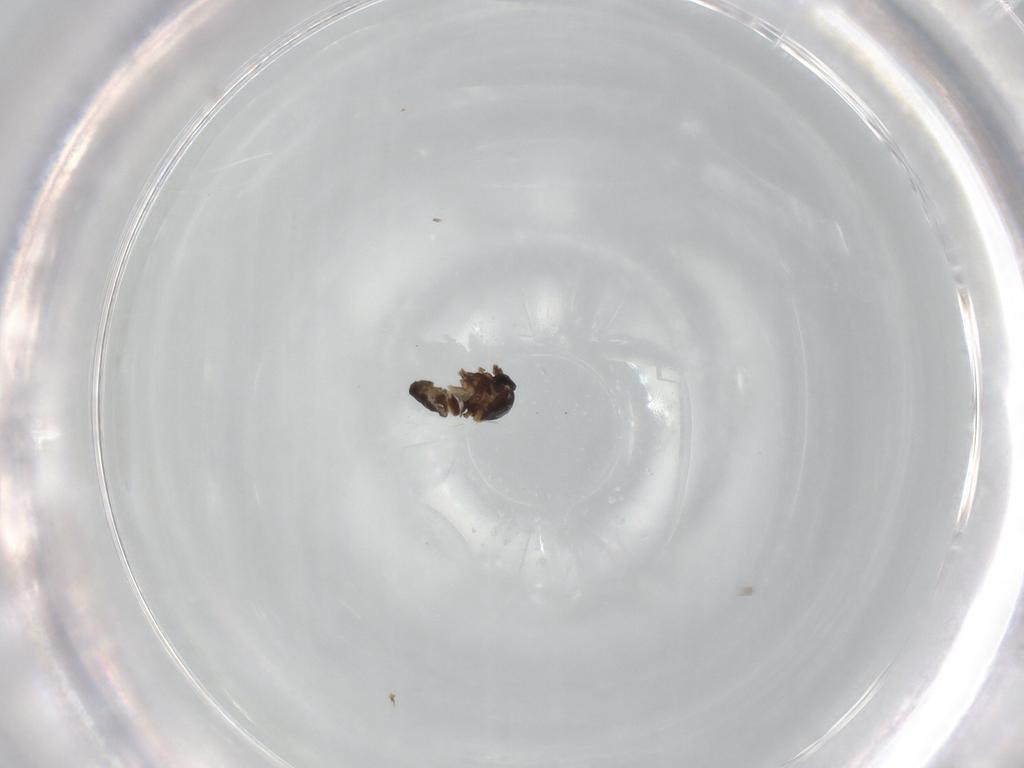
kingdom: Animalia
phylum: Arthropoda
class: Insecta
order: Diptera
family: Ceratopogonidae
